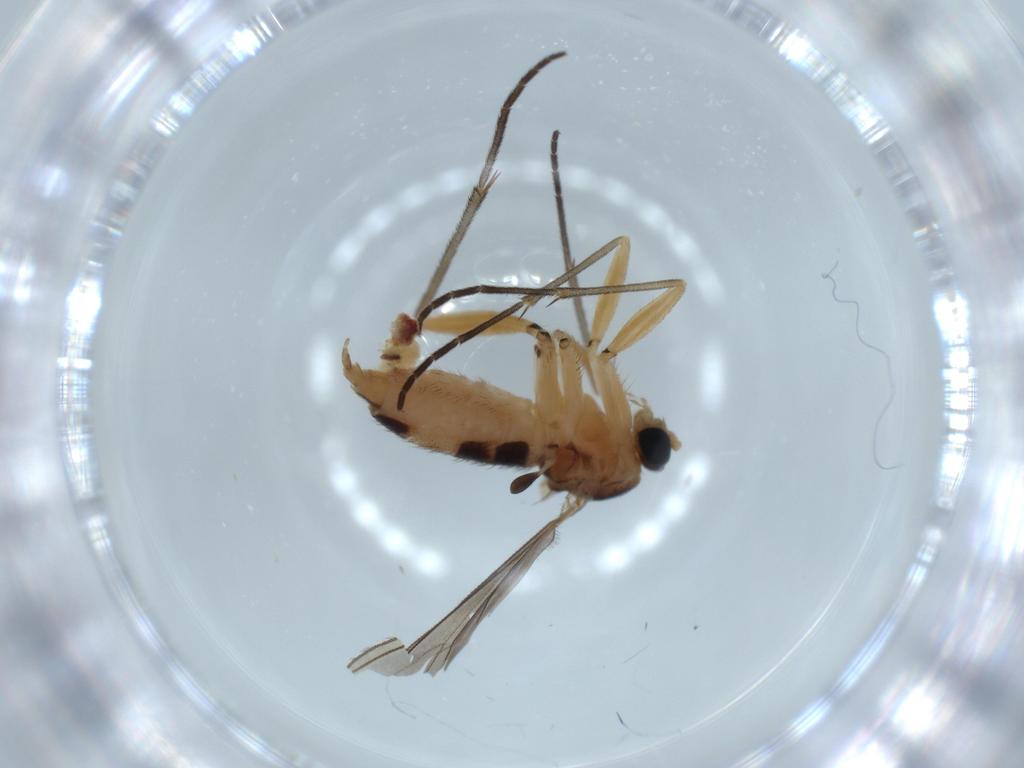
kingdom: Animalia
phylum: Arthropoda
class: Insecta
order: Diptera
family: Sciaridae
